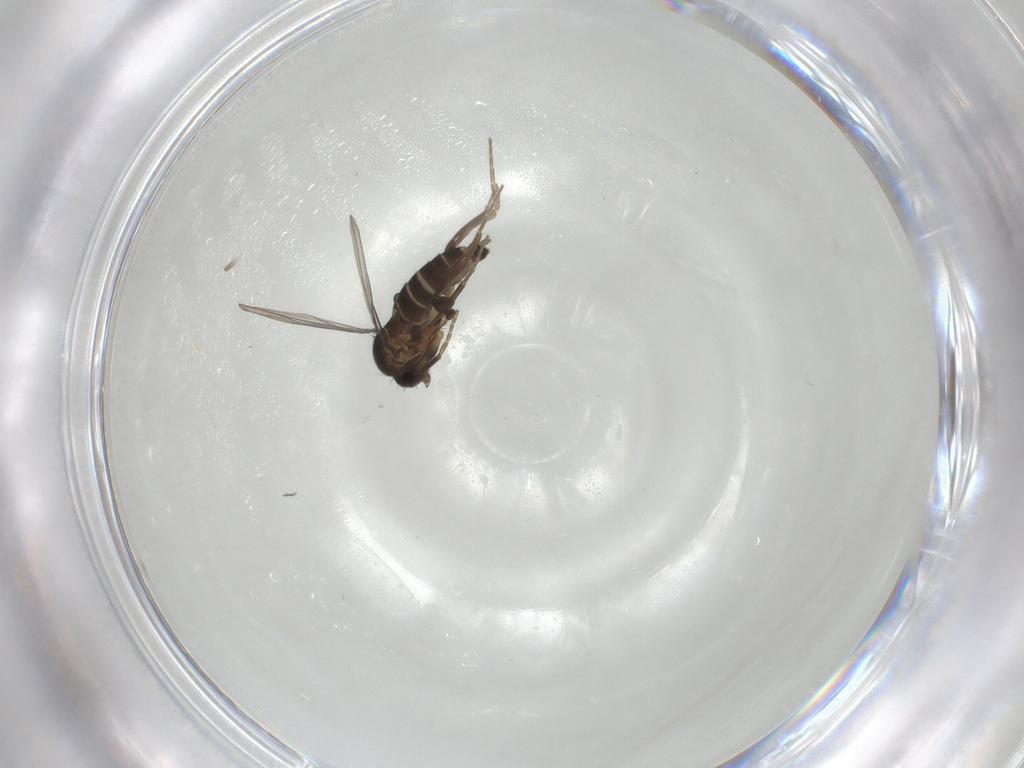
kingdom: Animalia
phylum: Arthropoda
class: Insecta
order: Diptera
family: Phoridae
